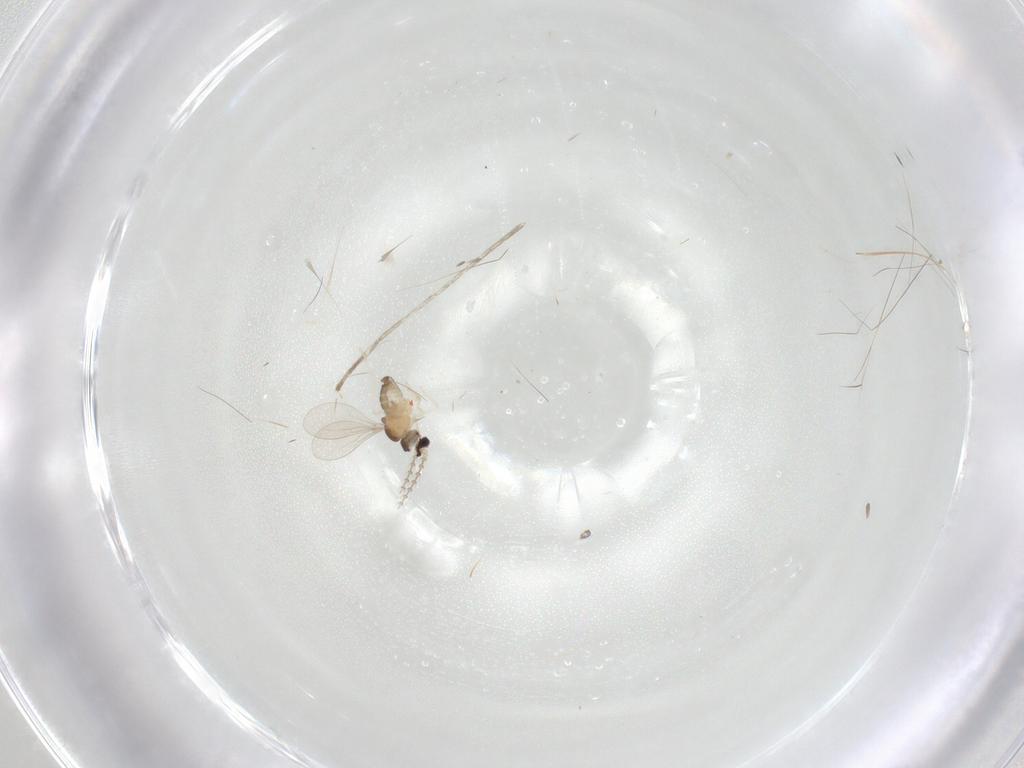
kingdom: Animalia
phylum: Arthropoda
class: Insecta
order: Diptera
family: Cecidomyiidae
